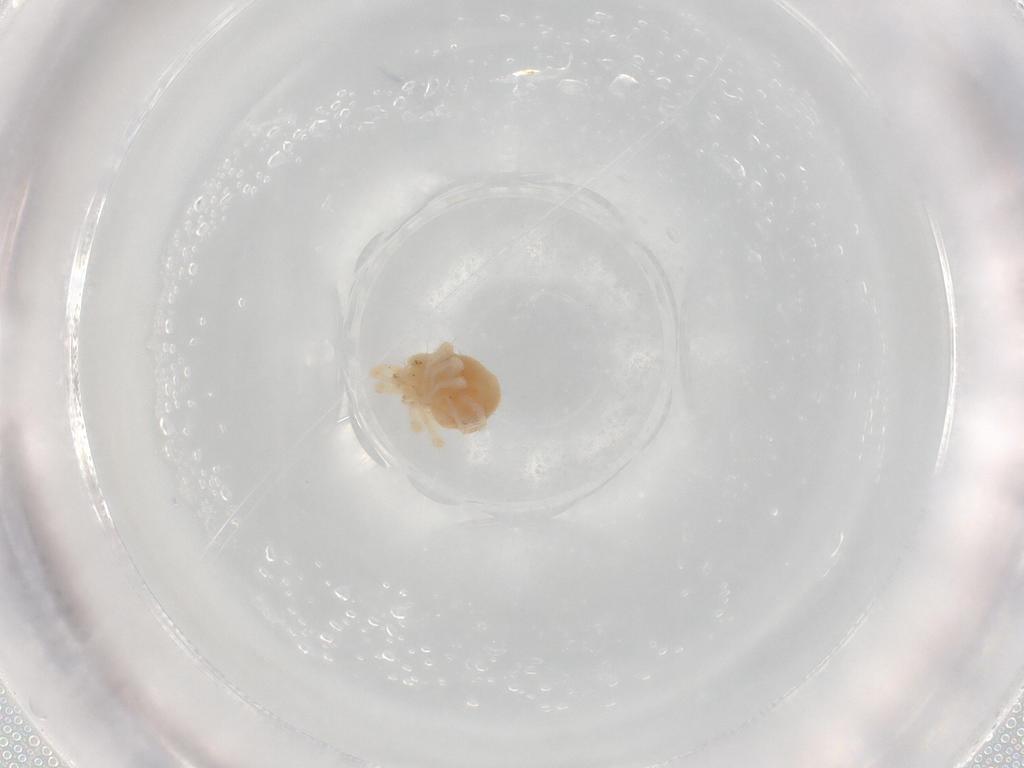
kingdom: Animalia
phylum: Arthropoda
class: Arachnida
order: Trombidiformes
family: Anystidae
